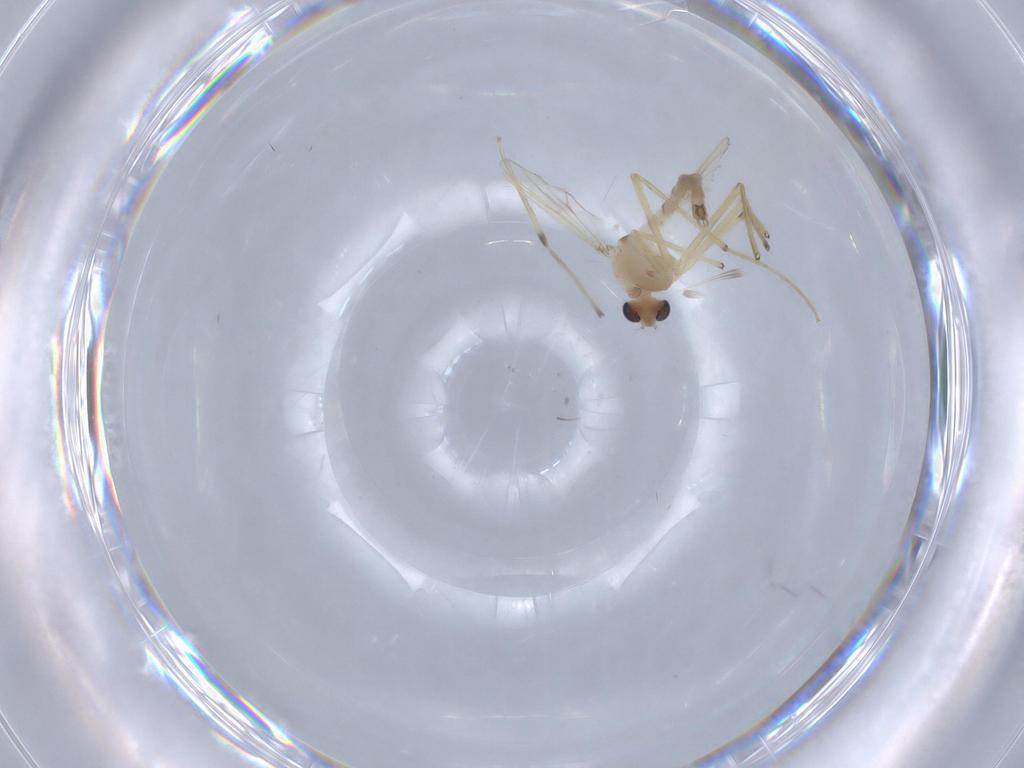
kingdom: Animalia
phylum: Arthropoda
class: Insecta
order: Diptera
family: Chironomidae
